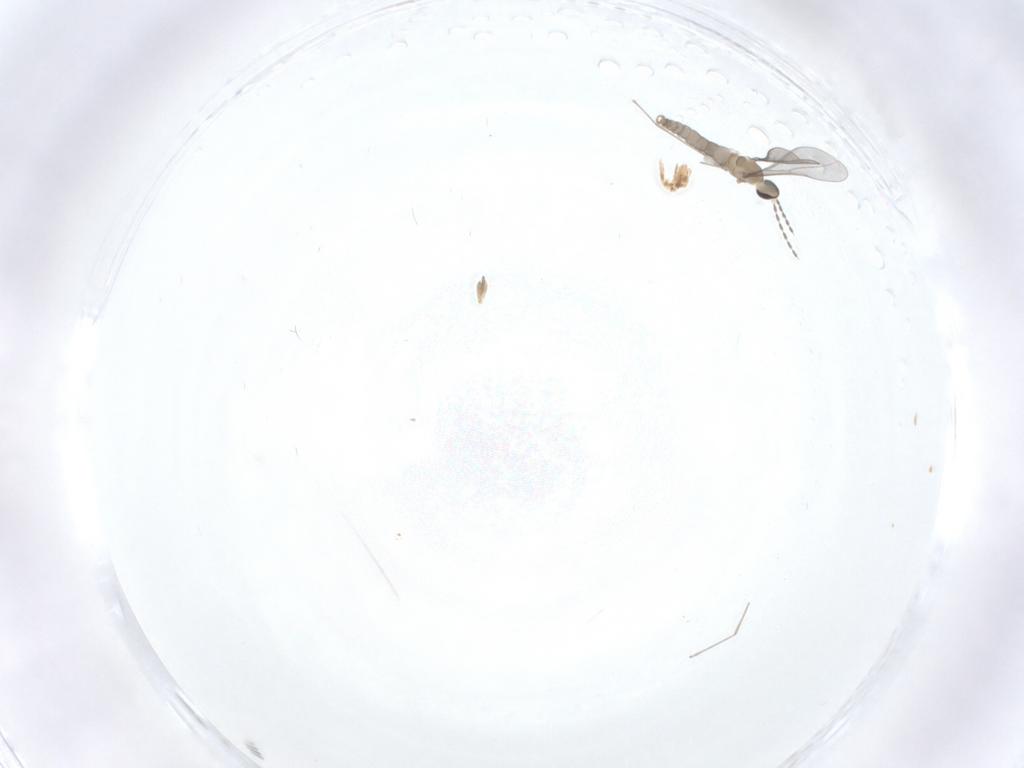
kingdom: Animalia
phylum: Arthropoda
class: Insecta
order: Diptera
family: Cecidomyiidae
